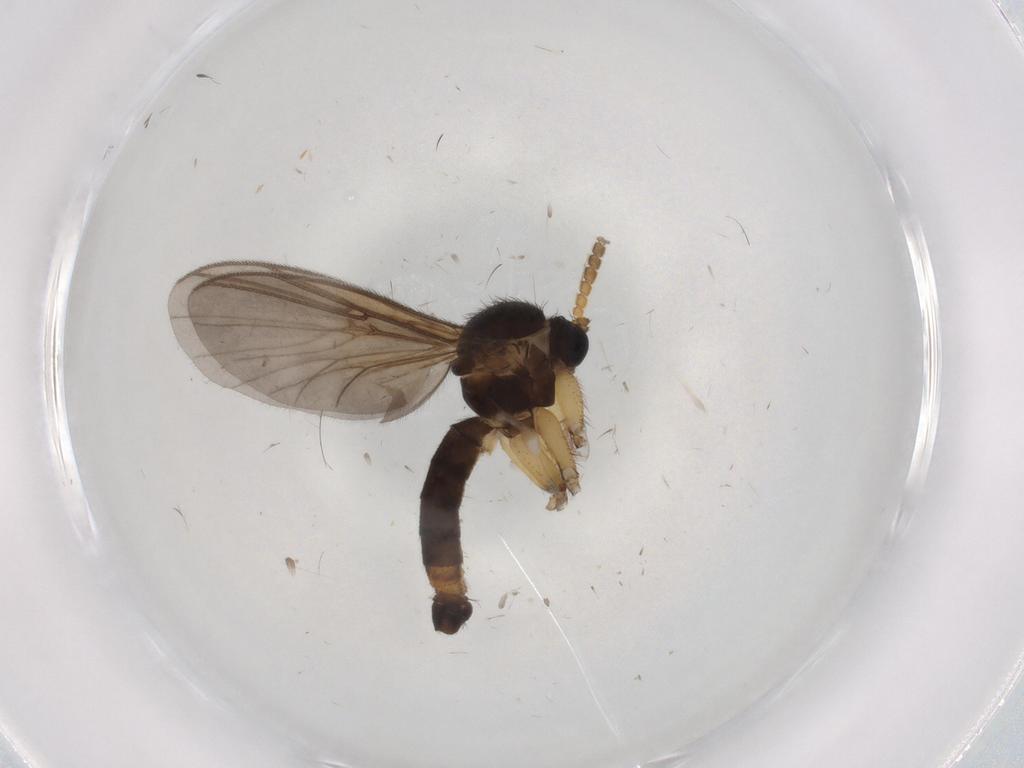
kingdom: Animalia
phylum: Arthropoda
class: Insecta
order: Diptera
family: Mycetophilidae
